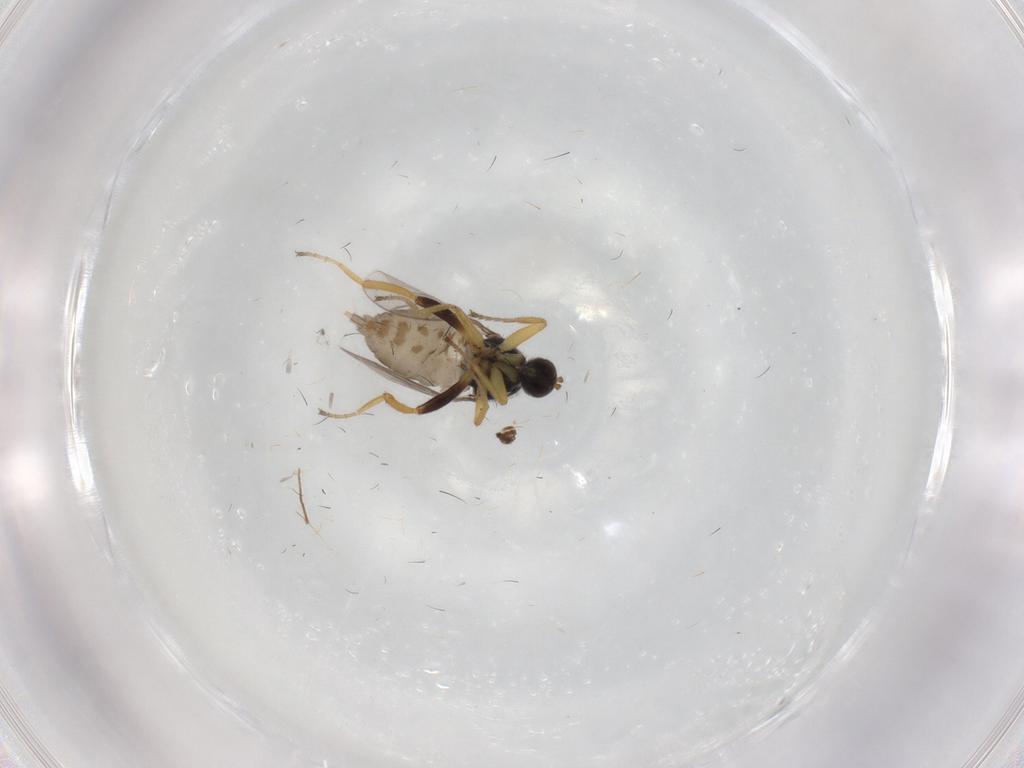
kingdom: Animalia
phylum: Arthropoda
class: Insecta
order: Diptera
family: Hybotidae
